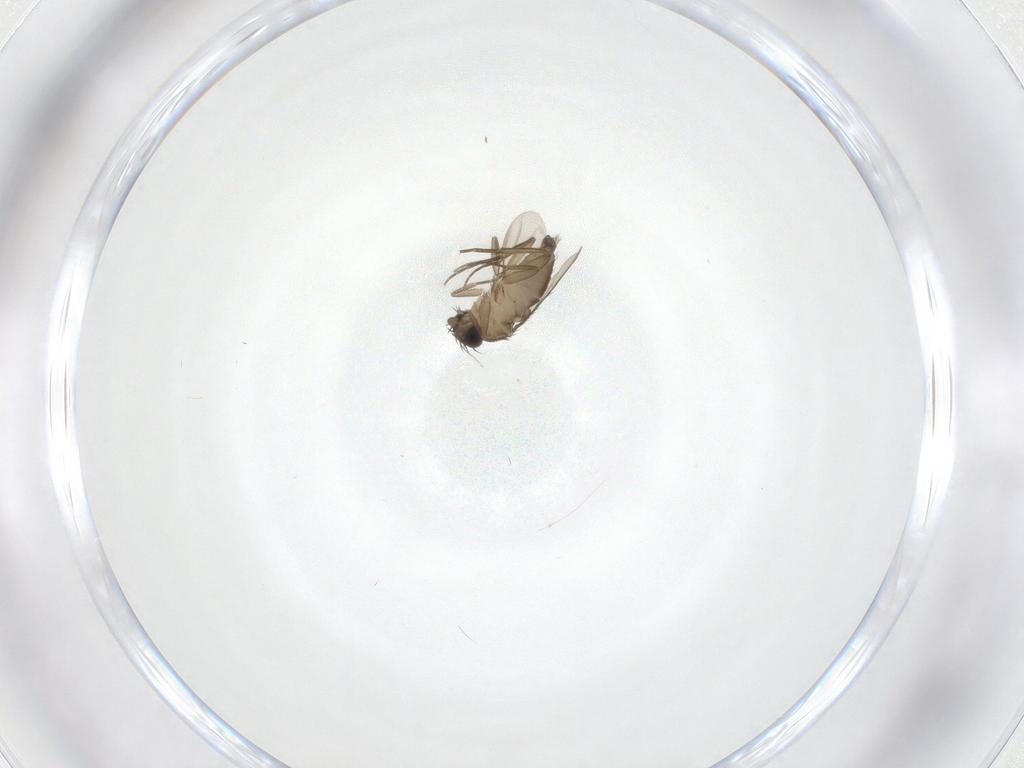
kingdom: Animalia
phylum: Arthropoda
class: Insecta
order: Diptera
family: Phoridae
